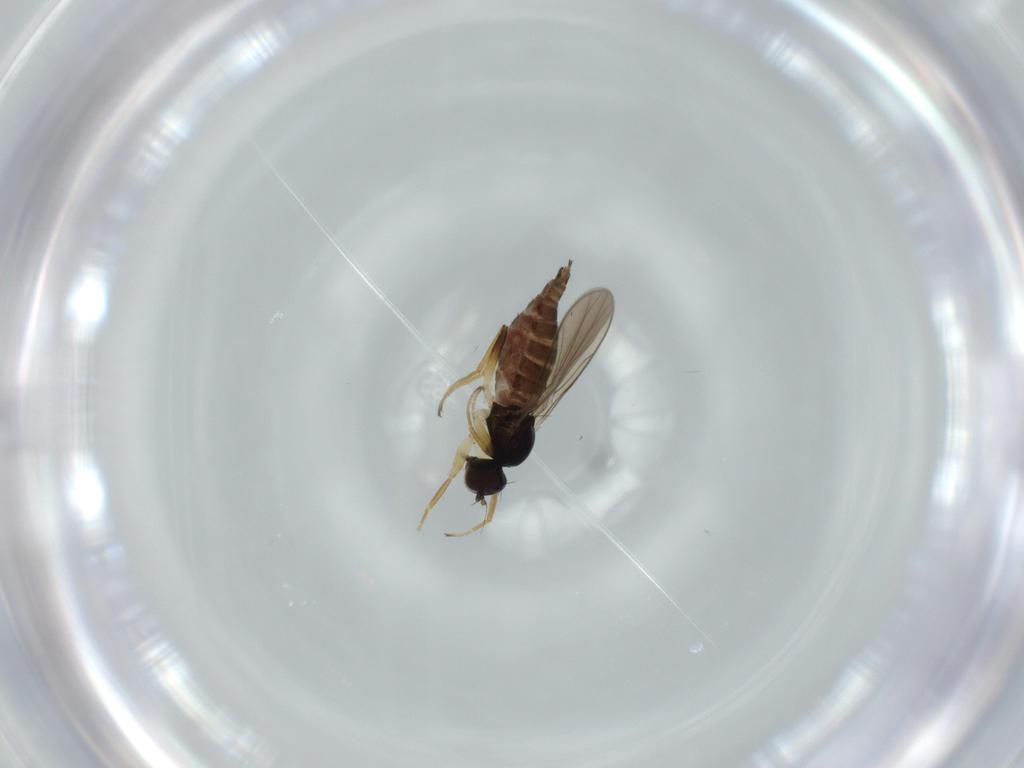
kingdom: Animalia
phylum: Arthropoda
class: Insecta
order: Diptera
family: Hybotidae
